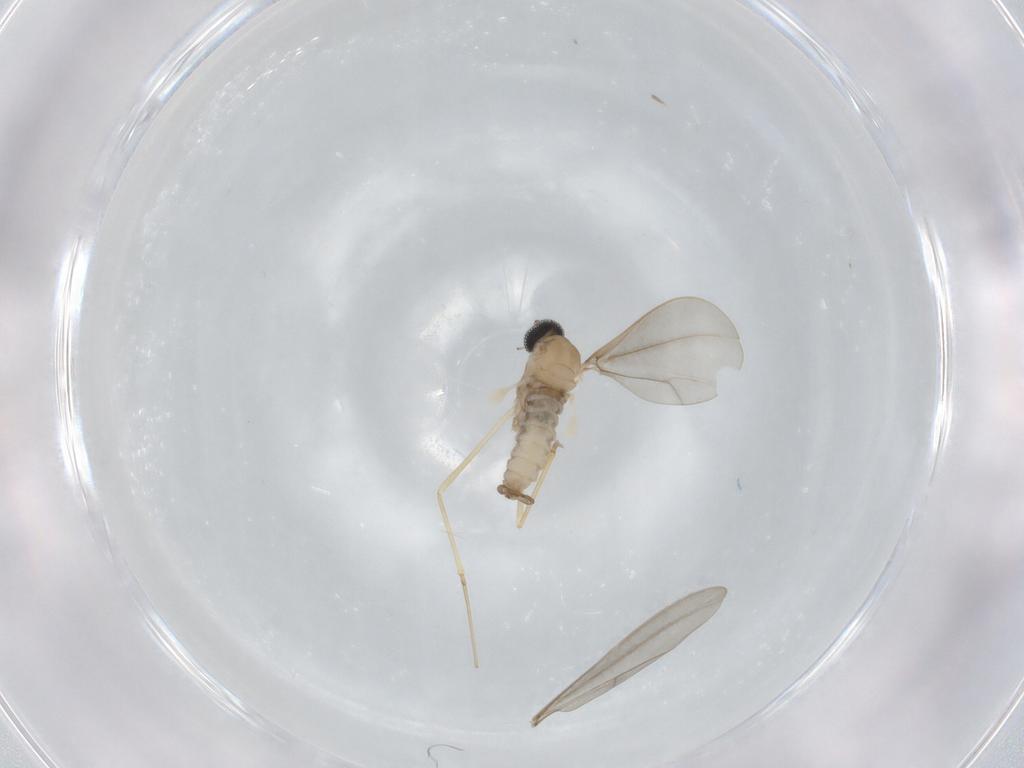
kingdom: Animalia
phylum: Arthropoda
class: Insecta
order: Diptera
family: Cecidomyiidae
